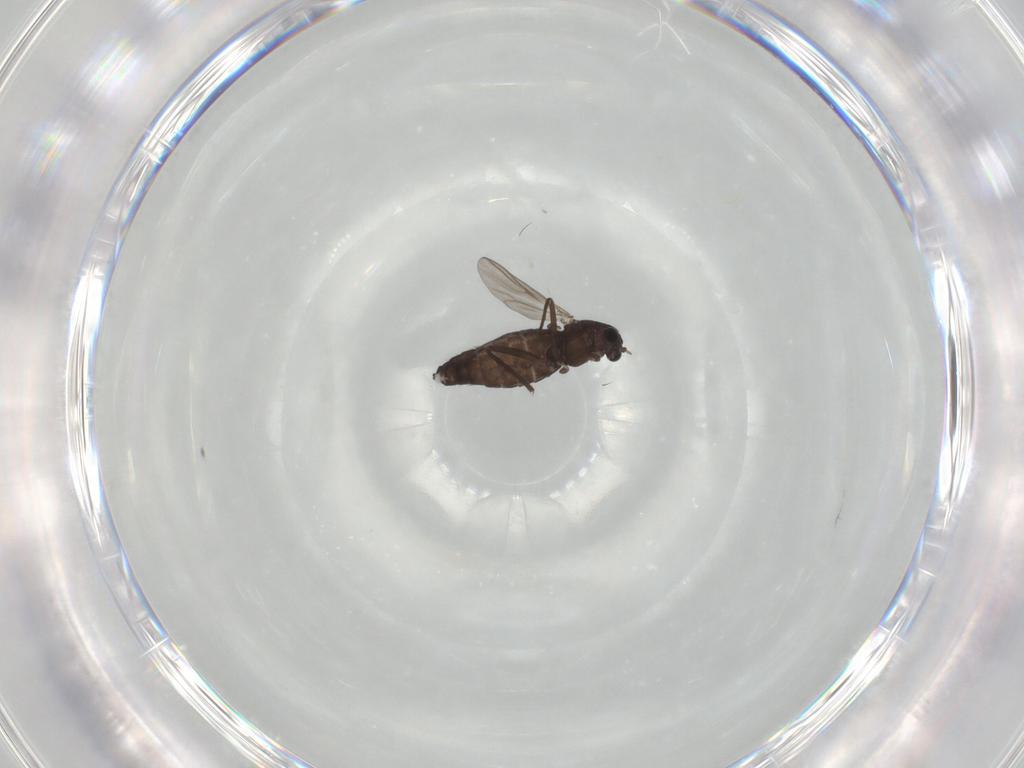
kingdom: Animalia
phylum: Arthropoda
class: Insecta
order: Diptera
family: Chironomidae
